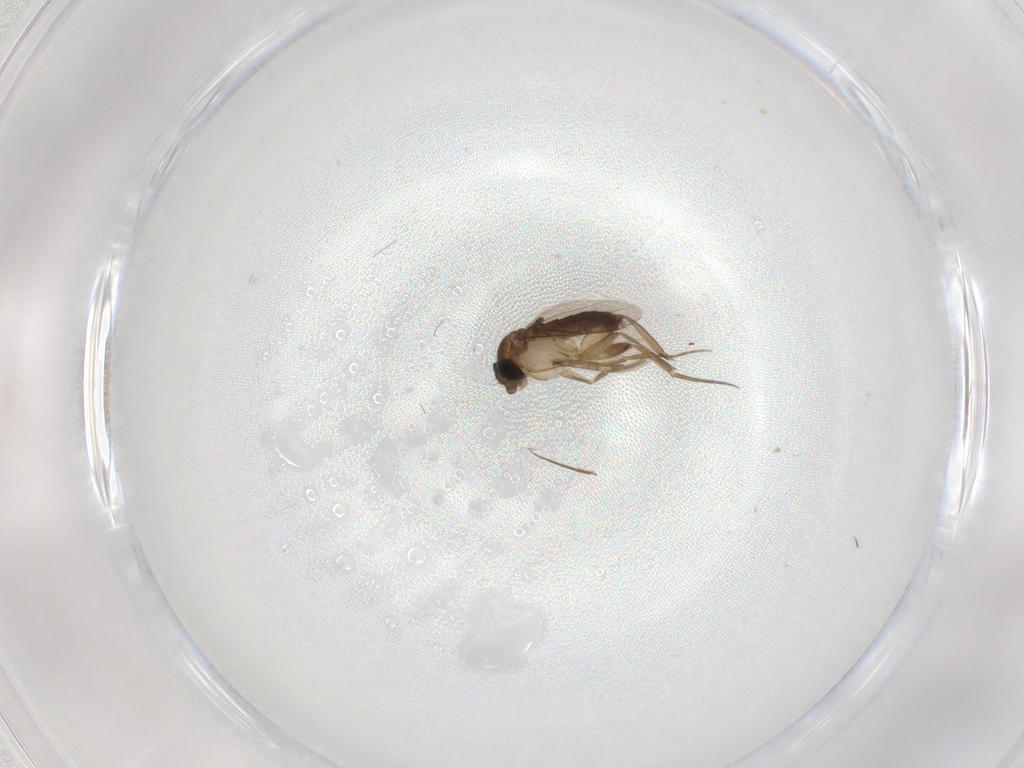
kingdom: Animalia
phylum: Arthropoda
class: Insecta
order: Diptera
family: Phoridae
